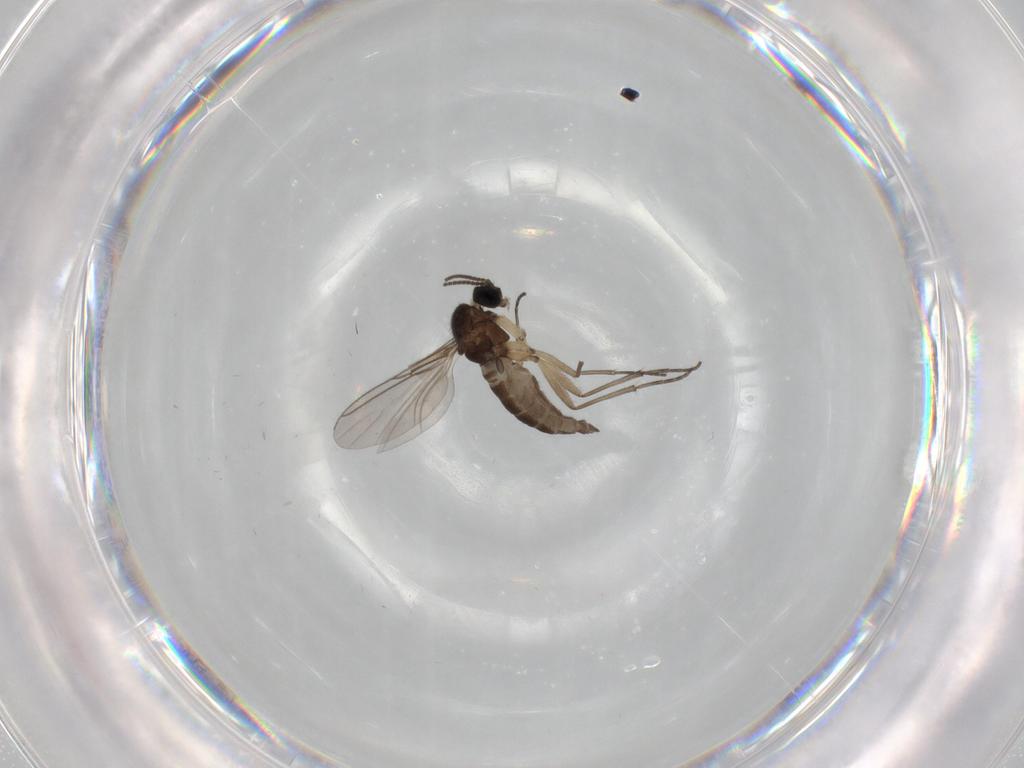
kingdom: Animalia
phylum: Arthropoda
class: Insecta
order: Diptera
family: Sciaridae
